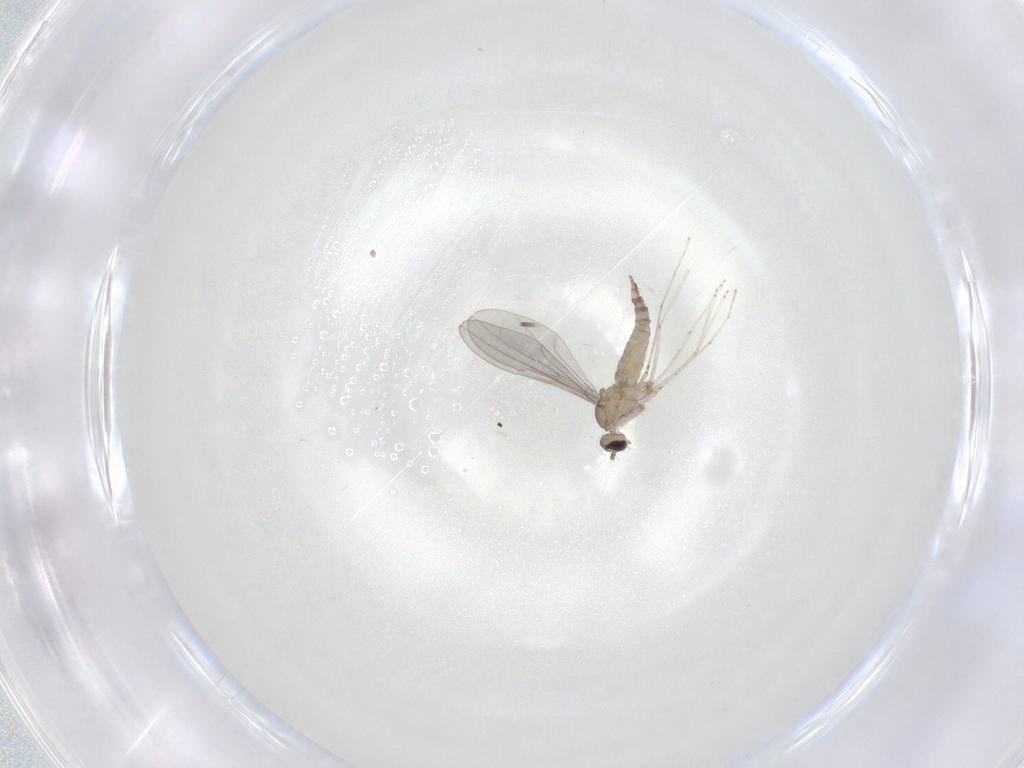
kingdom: Animalia
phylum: Arthropoda
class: Insecta
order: Diptera
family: Cecidomyiidae
